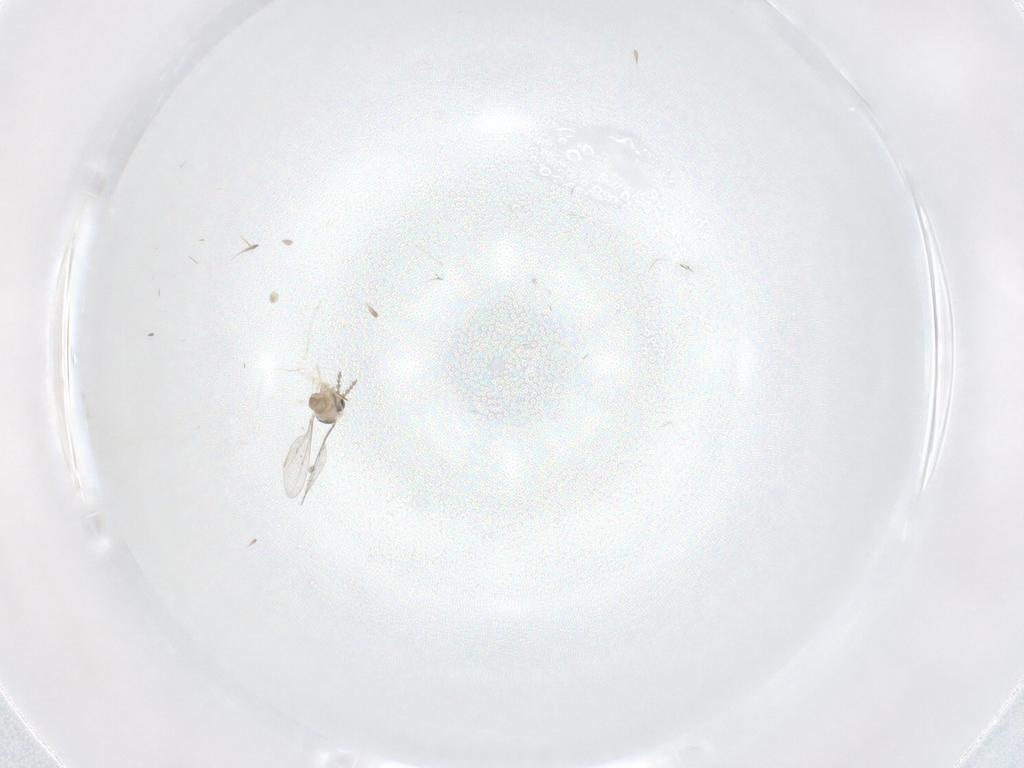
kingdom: Animalia
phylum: Arthropoda
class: Insecta
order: Diptera
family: Cecidomyiidae
